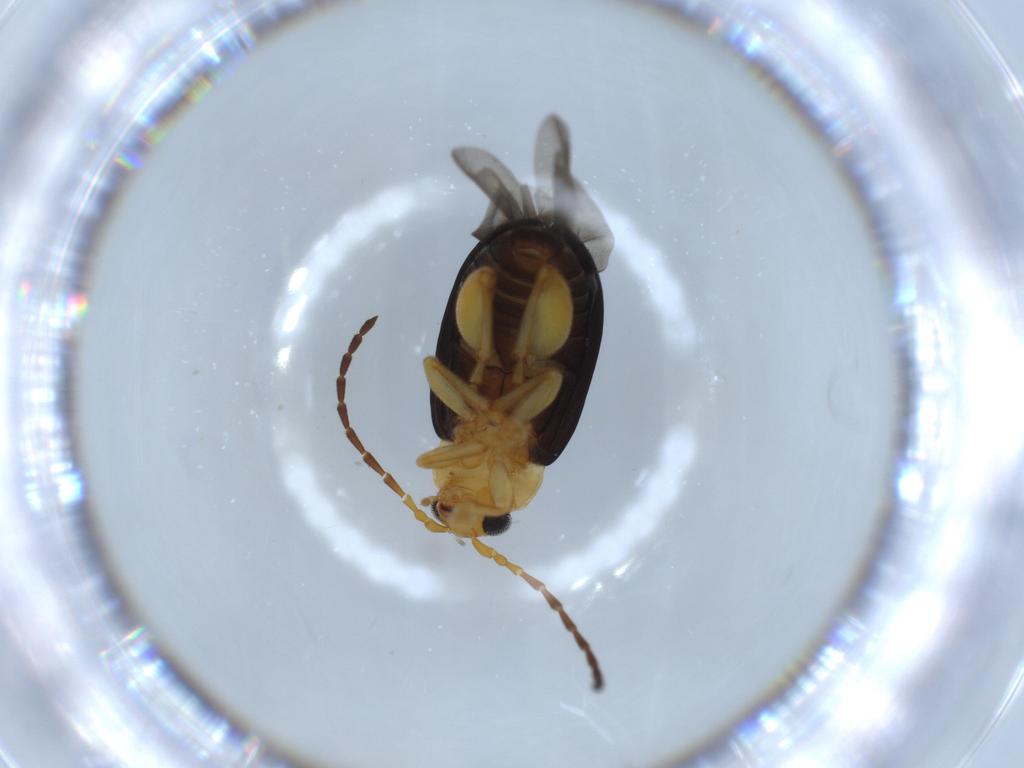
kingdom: Animalia
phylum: Arthropoda
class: Insecta
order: Coleoptera
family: Chrysomelidae
